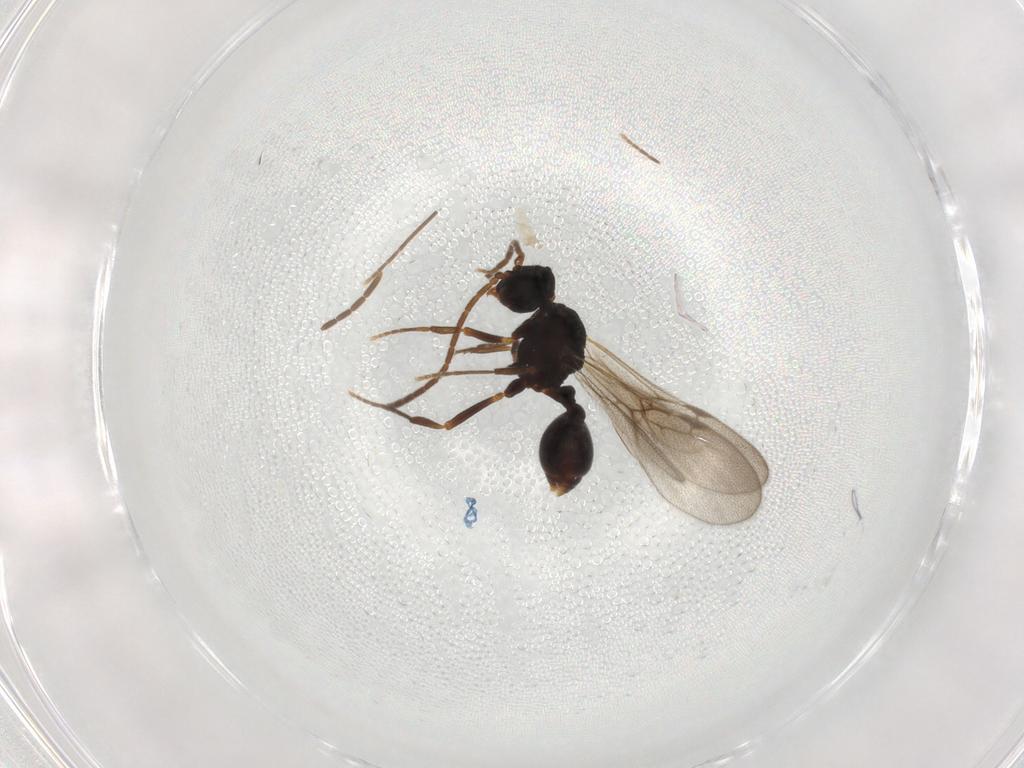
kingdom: Animalia
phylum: Arthropoda
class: Insecta
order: Hymenoptera
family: Formicidae
